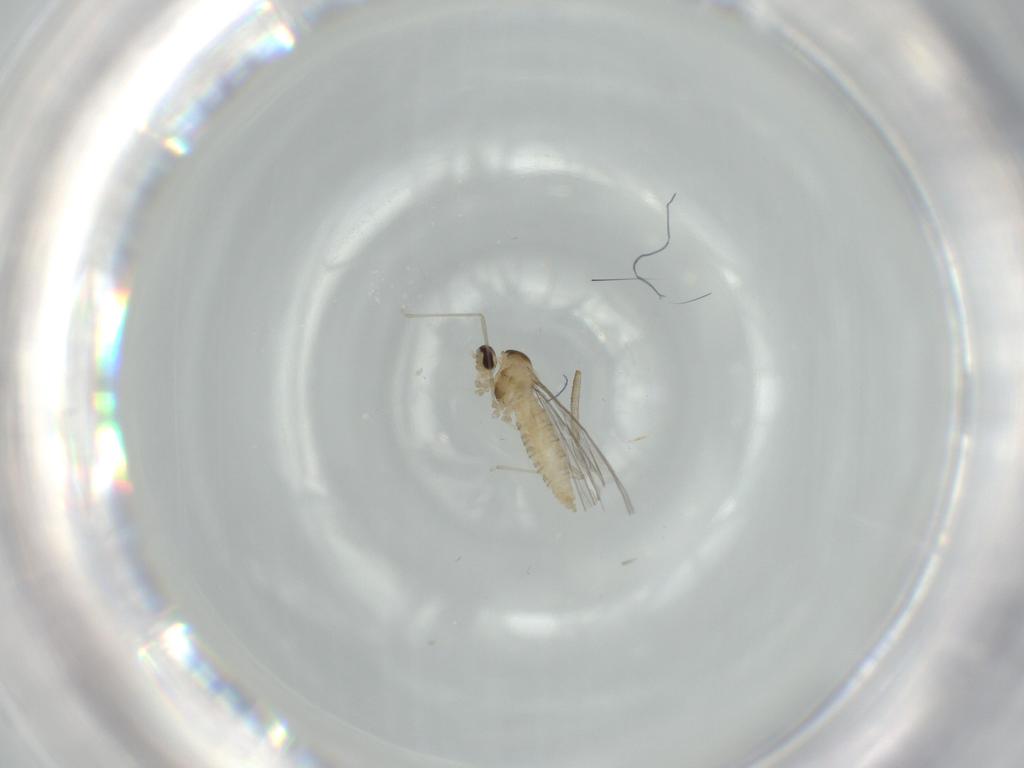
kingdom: Animalia
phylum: Arthropoda
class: Insecta
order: Diptera
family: Cecidomyiidae
